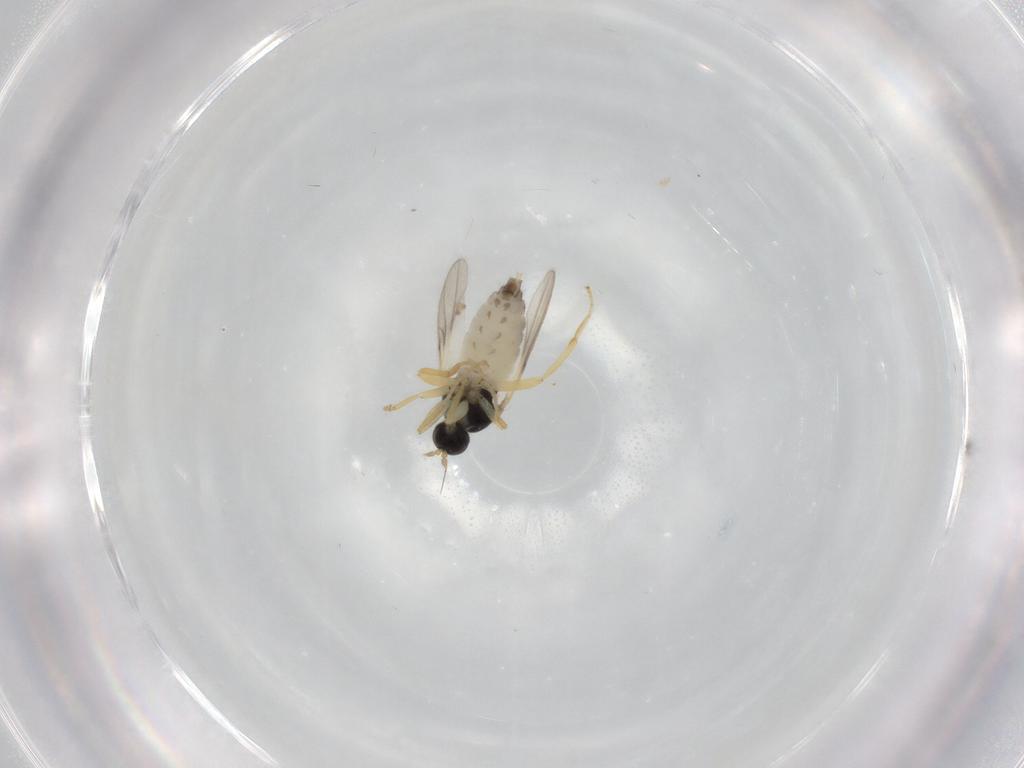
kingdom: Animalia
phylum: Arthropoda
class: Insecta
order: Diptera
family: Hybotidae
